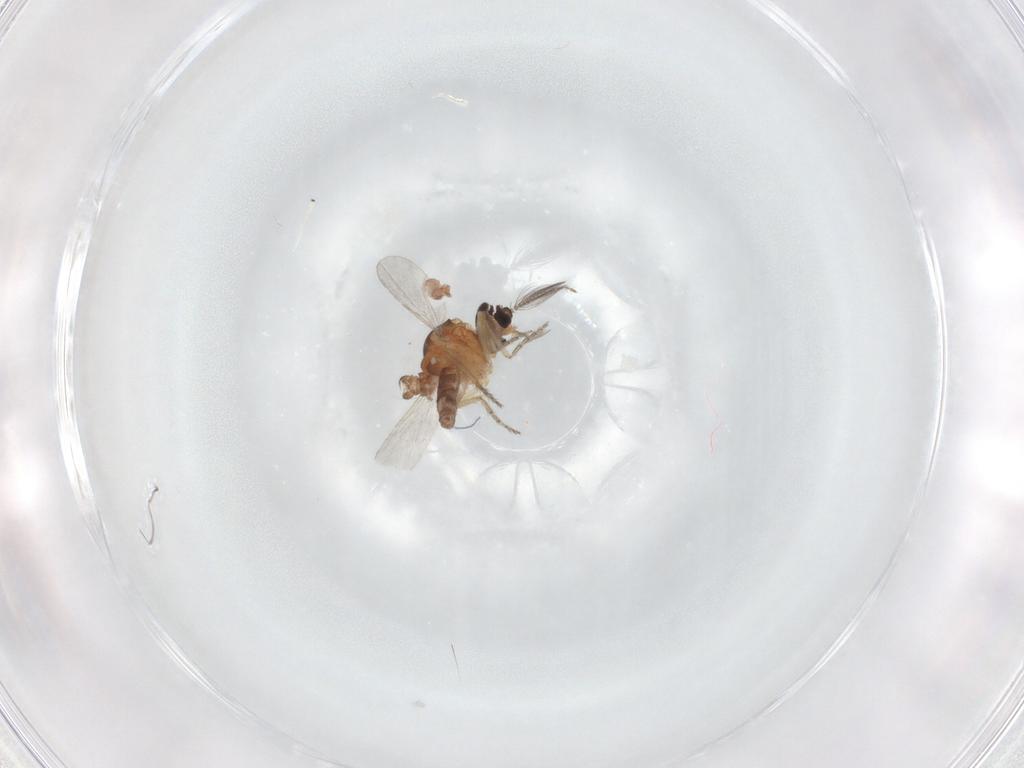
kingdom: Animalia
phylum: Arthropoda
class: Insecta
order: Diptera
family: Ceratopogonidae
